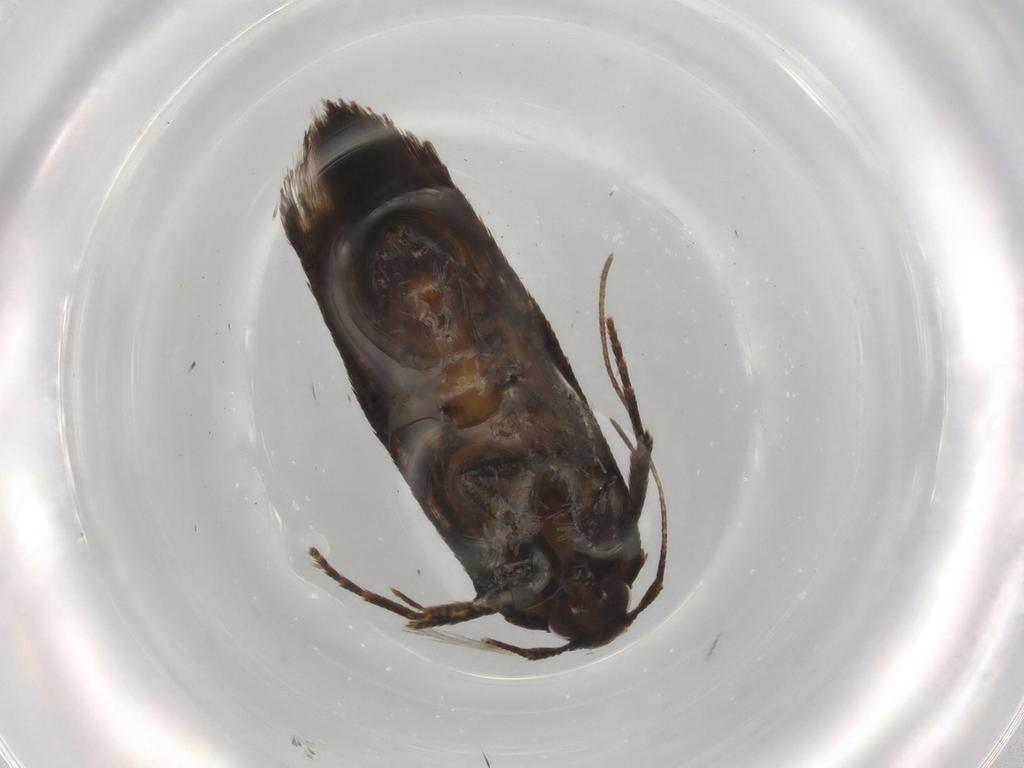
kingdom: Animalia
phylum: Arthropoda
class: Insecta
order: Lepidoptera
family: Cosmopterigidae
